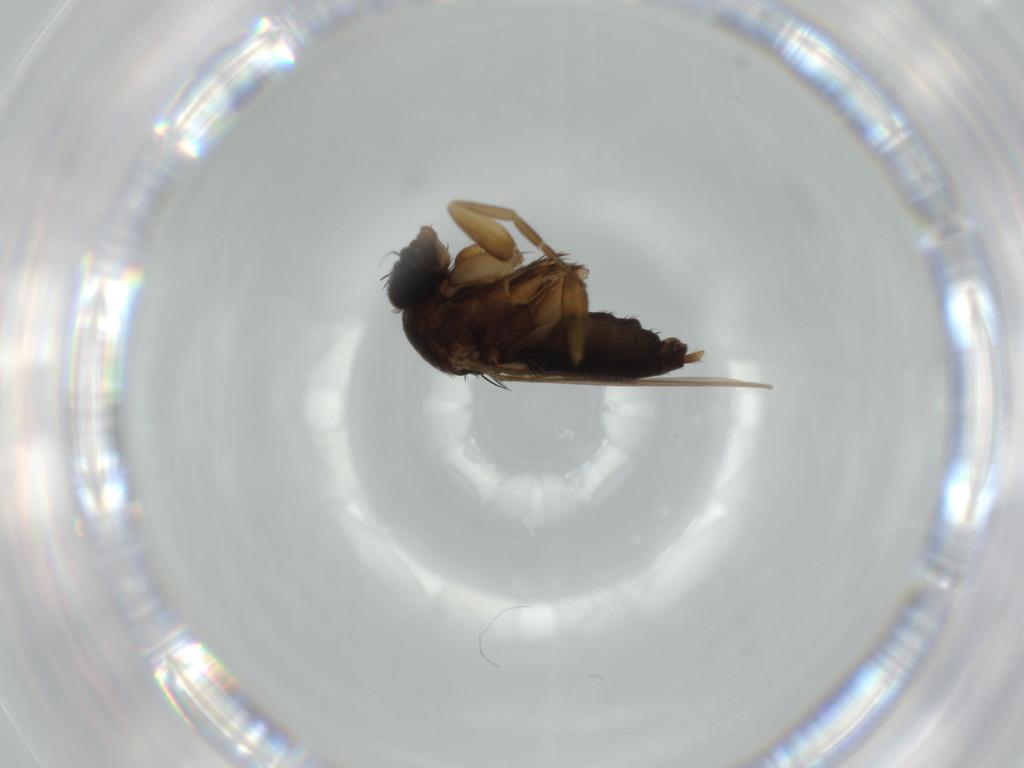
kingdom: Animalia
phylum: Arthropoda
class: Insecta
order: Diptera
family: Phoridae
